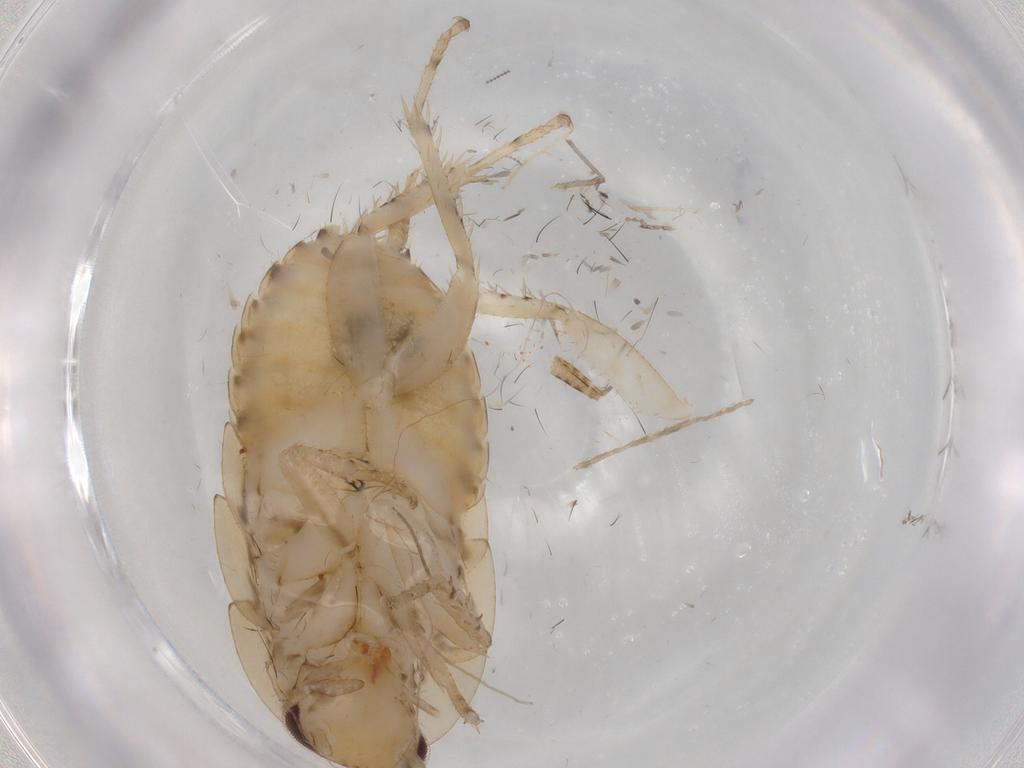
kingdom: Animalia
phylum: Arthropoda
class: Insecta
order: Blattodea
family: Ectobiidae
